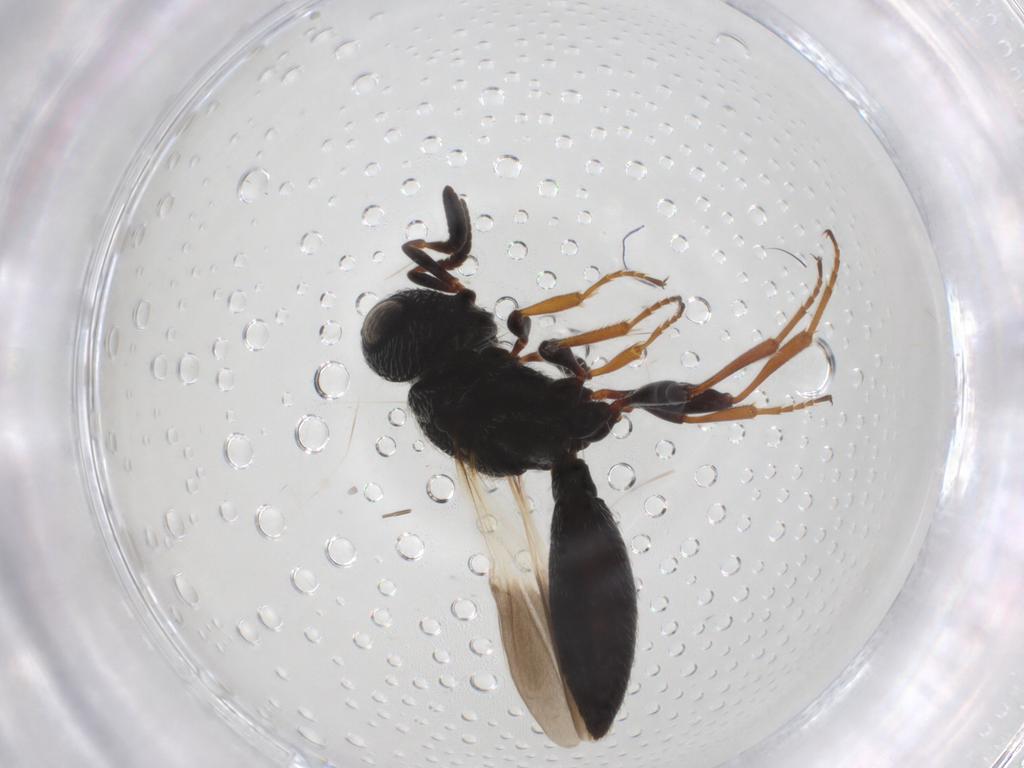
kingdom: Animalia
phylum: Arthropoda
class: Insecta
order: Hymenoptera
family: Scelionidae
